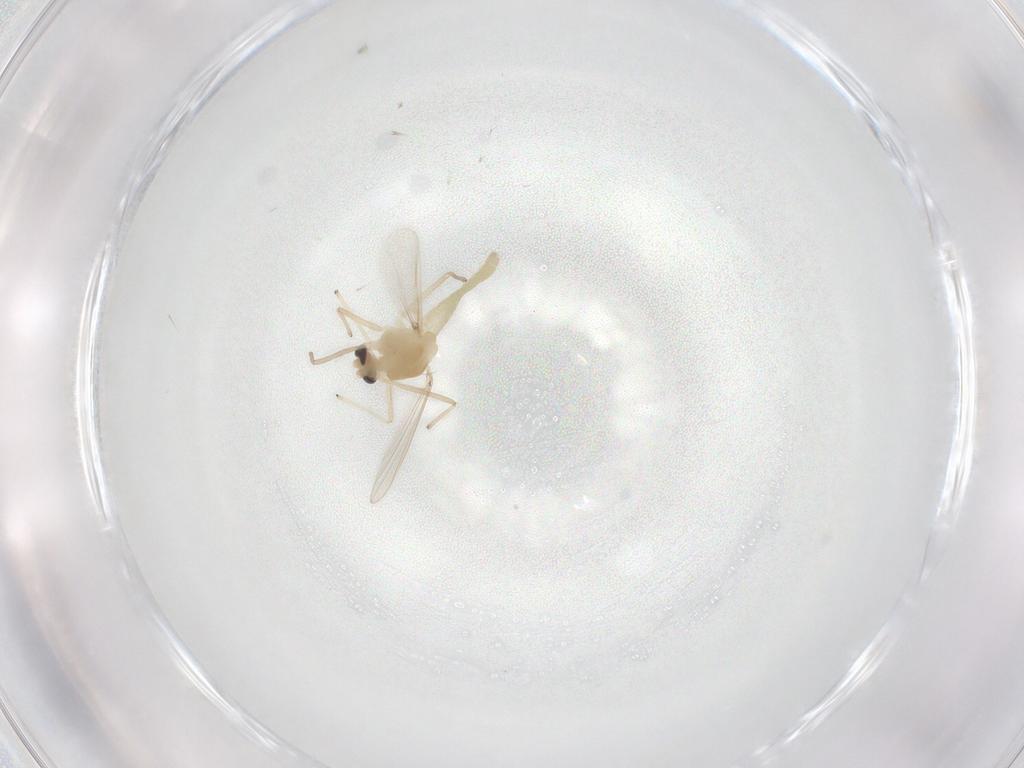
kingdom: Animalia
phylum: Arthropoda
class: Insecta
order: Diptera
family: Chironomidae
